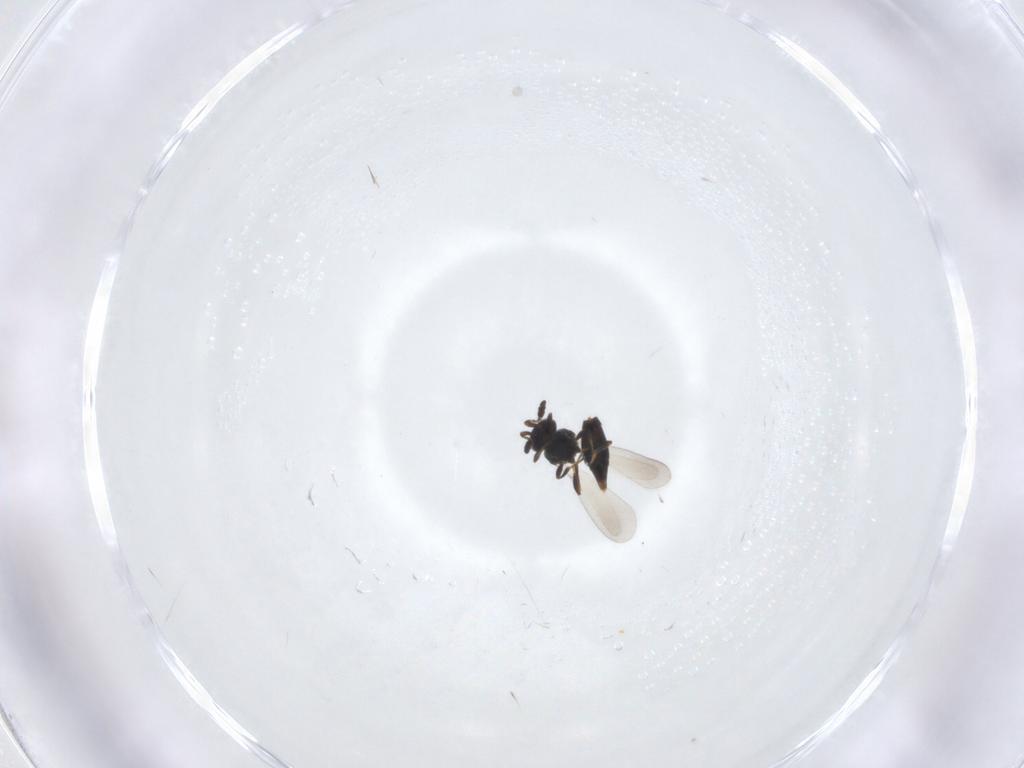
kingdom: Animalia
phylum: Arthropoda
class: Insecta
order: Hymenoptera
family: Platygastridae
